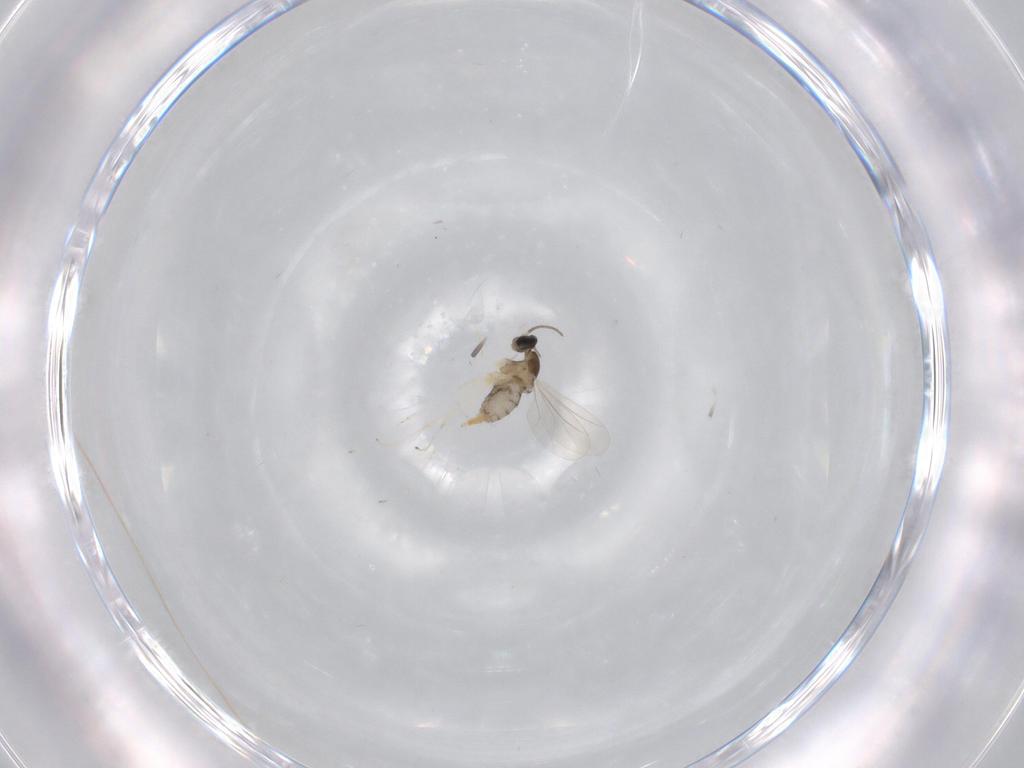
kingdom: Animalia
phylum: Arthropoda
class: Insecta
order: Diptera
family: Cecidomyiidae
